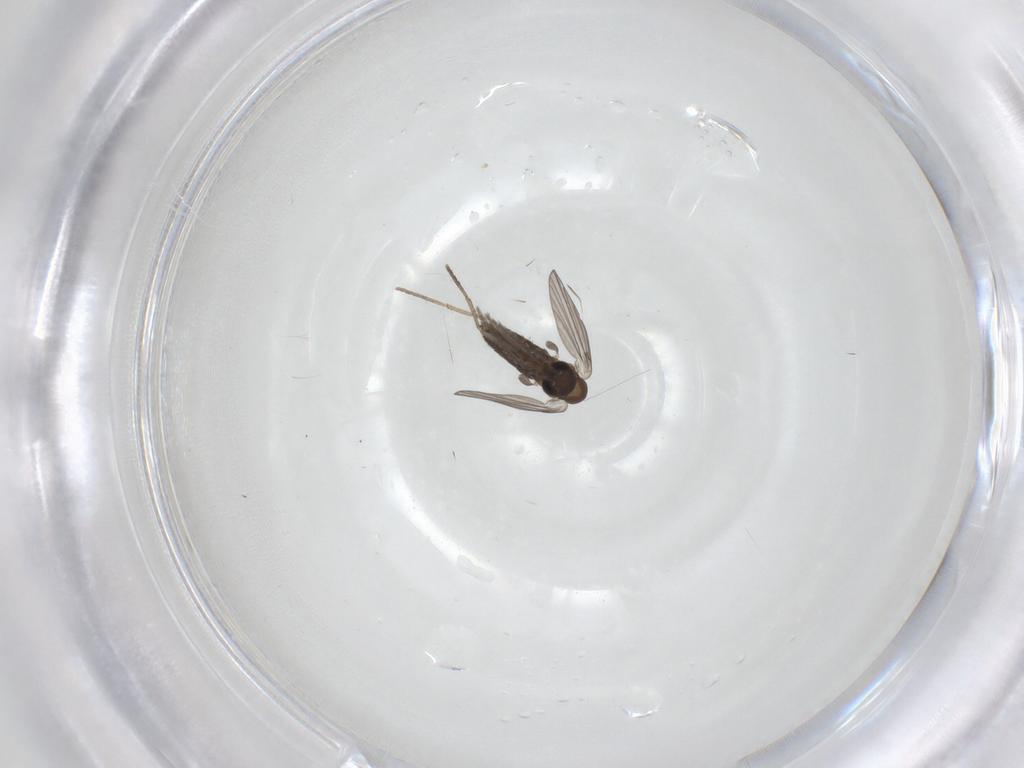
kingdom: Animalia
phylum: Arthropoda
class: Insecta
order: Diptera
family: Psychodidae
